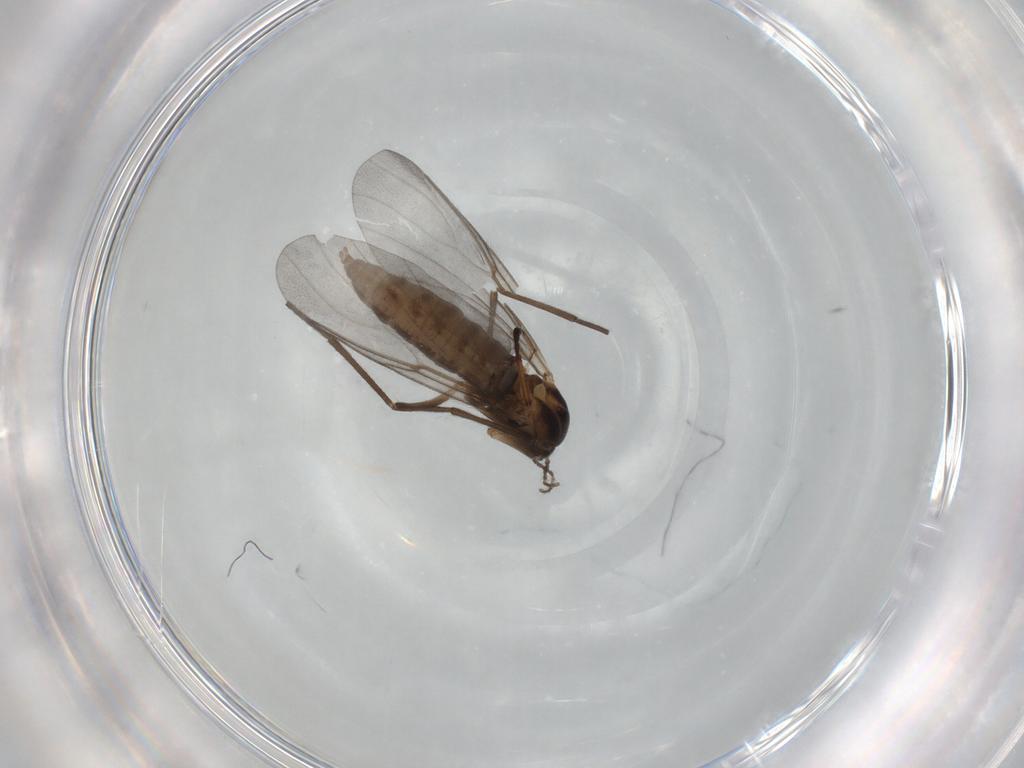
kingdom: Animalia
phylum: Arthropoda
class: Insecta
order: Diptera
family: Cecidomyiidae
